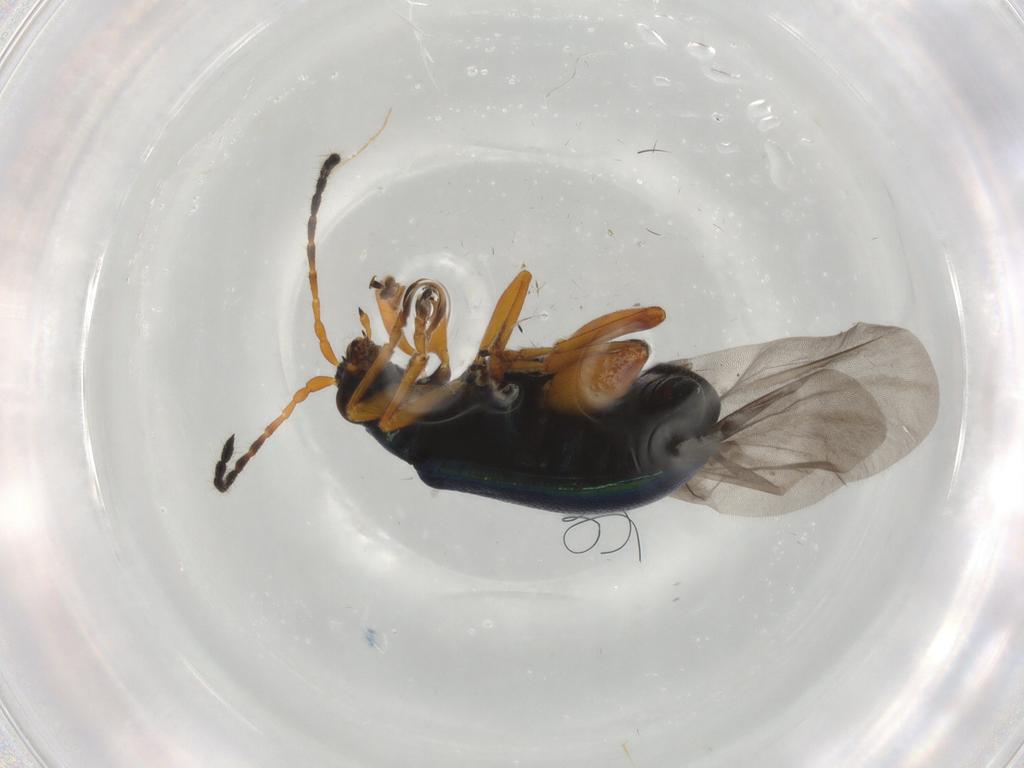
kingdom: Animalia
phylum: Arthropoda
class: Insecta
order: Coleoptera
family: Chrysomelidae
